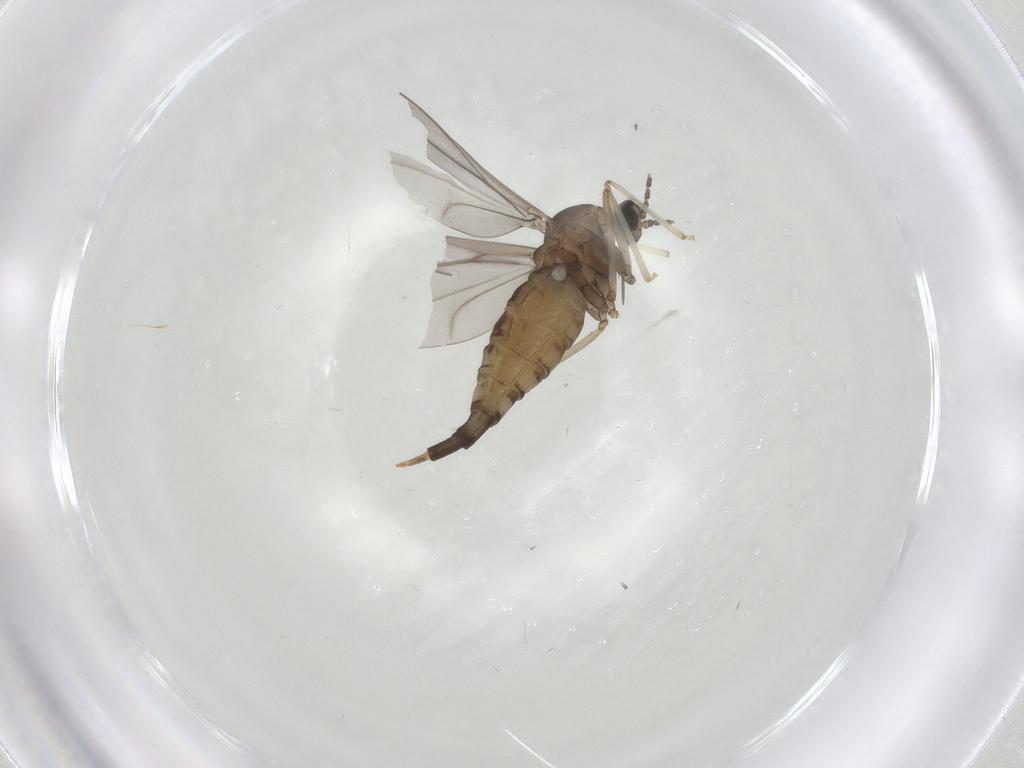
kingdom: Animalia
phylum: Arthropoda
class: Insecta
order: Diptera
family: Cecidomyiidae
